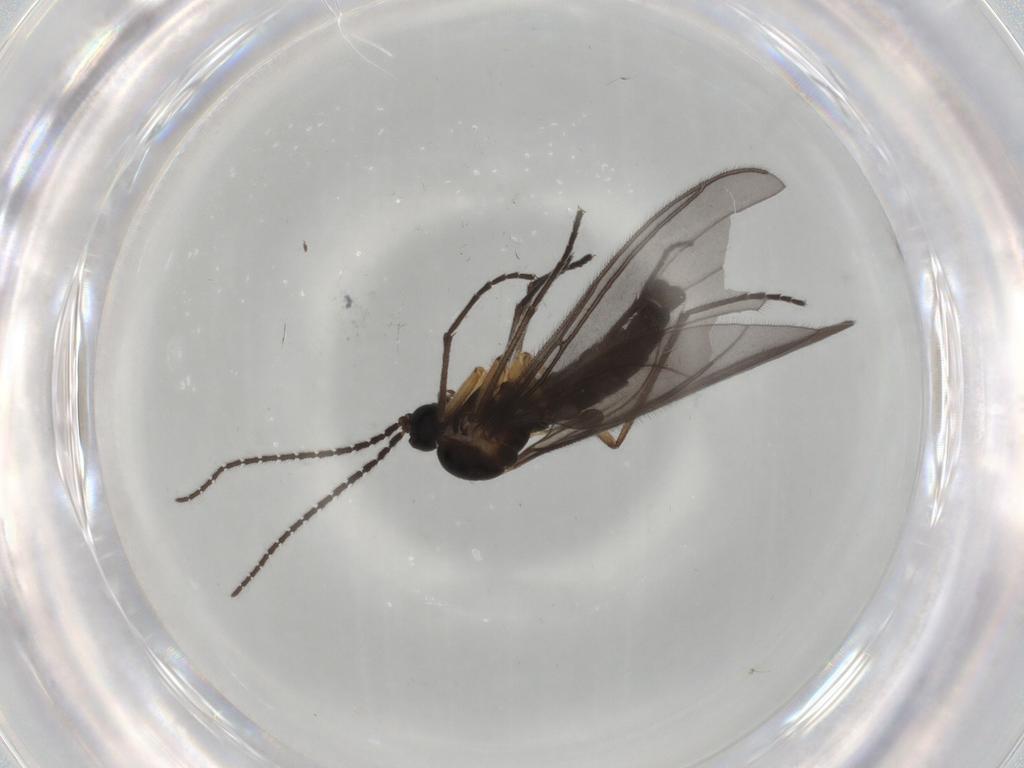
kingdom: Animalia
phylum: Arthropoda
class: Insecta
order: Diptera
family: Sciaridae
